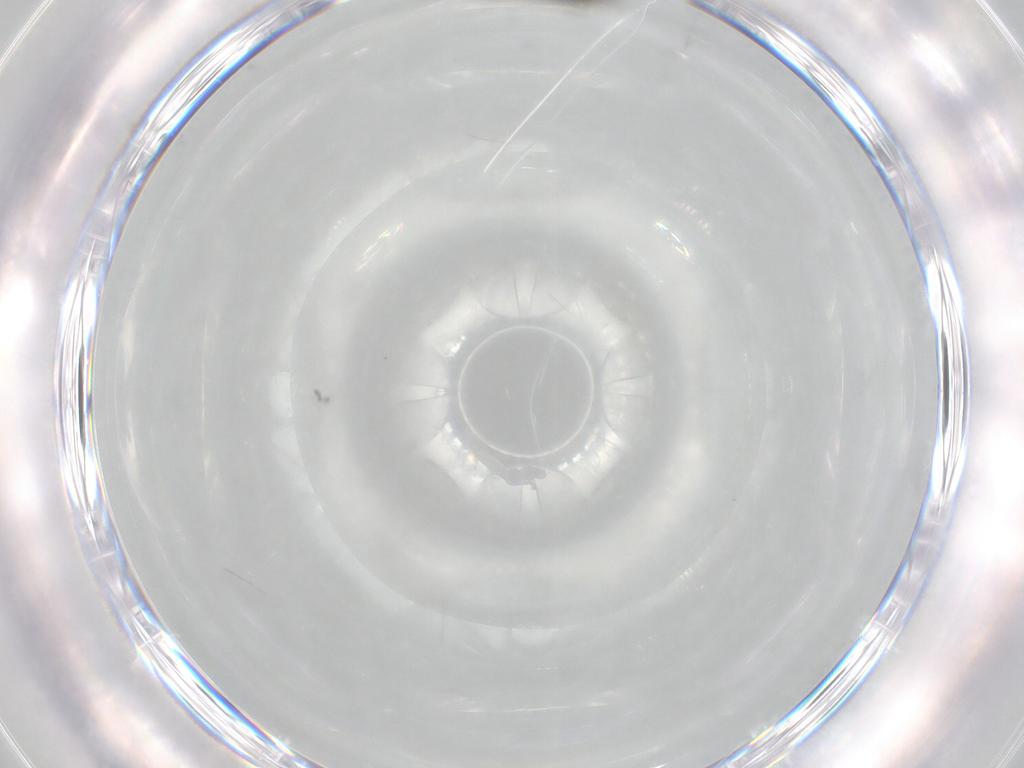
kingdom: Animalia
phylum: Arthropoda
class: Insecta
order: Diptera
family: Sciaridae
